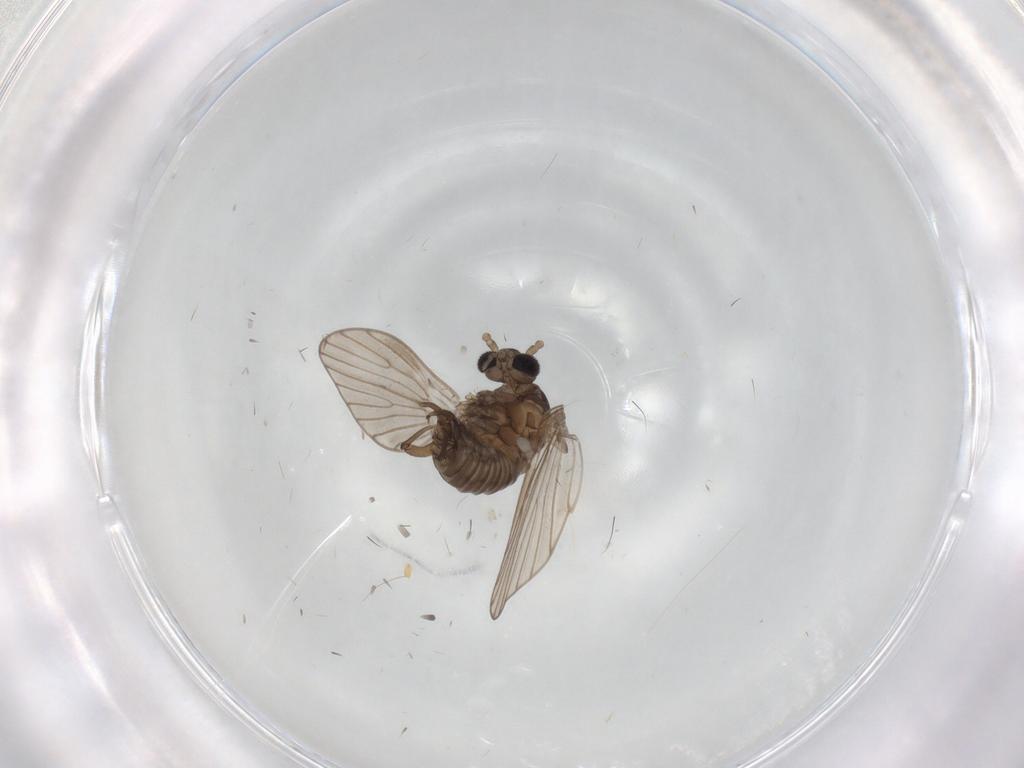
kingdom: Animalia
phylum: Arthropoda
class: Insecta
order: Diptera
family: Psychodidae
